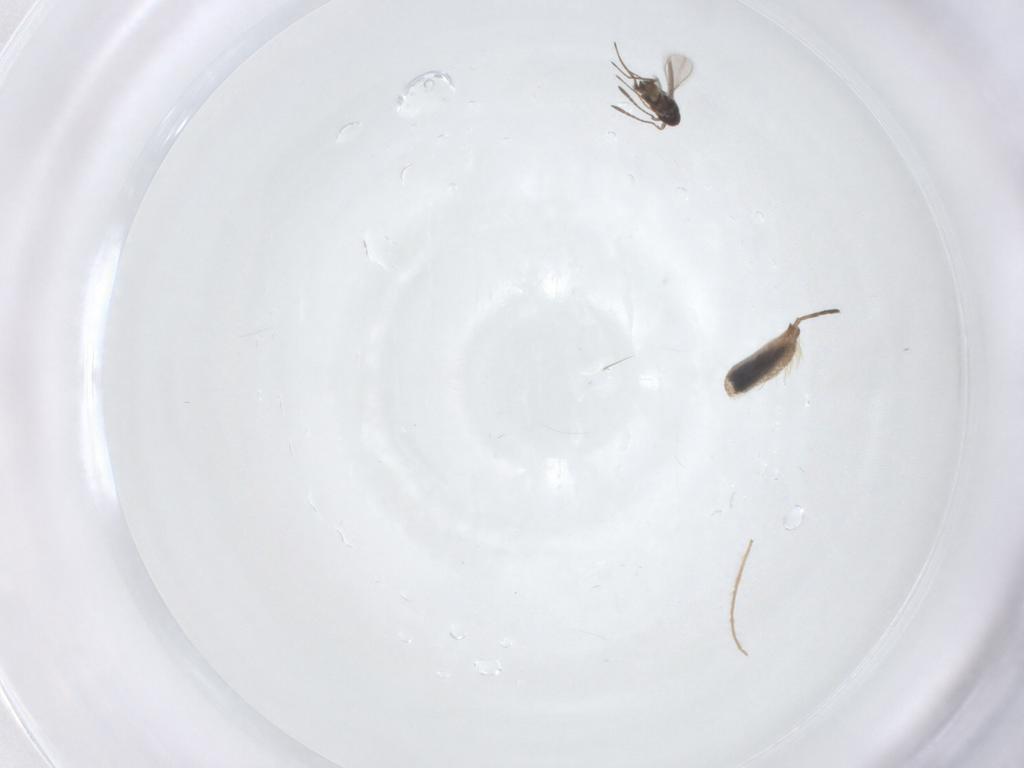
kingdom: Animalia
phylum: Arthropoda
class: Insecta
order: Hymenoptera
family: Mymaridae
